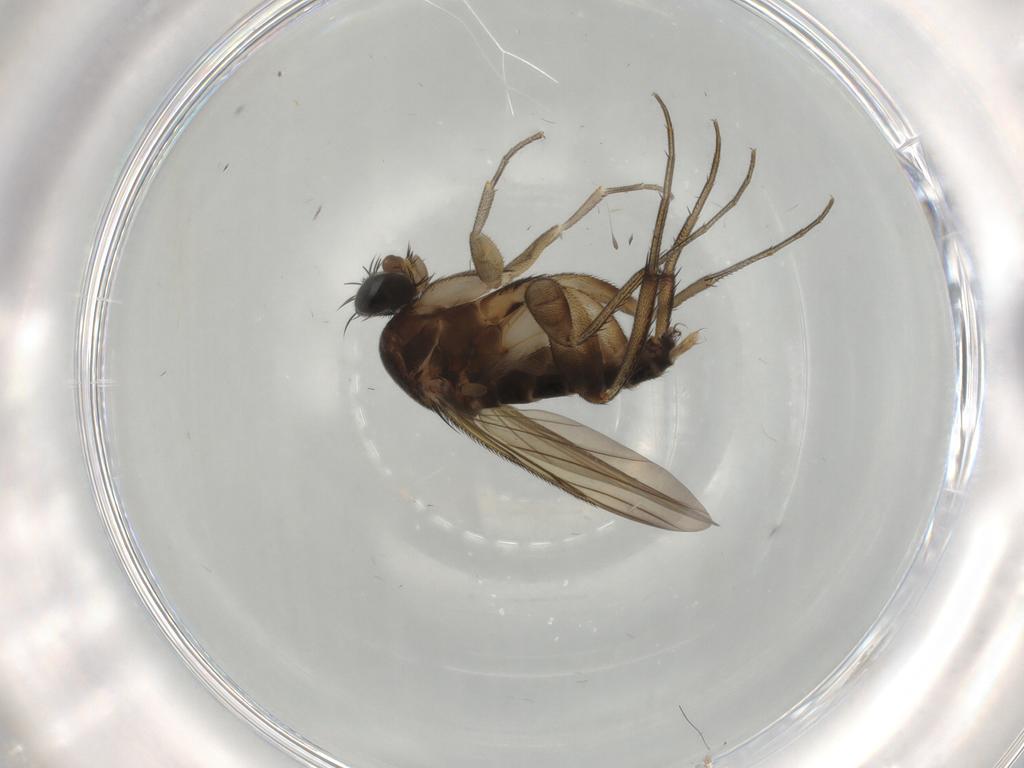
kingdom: Animalia
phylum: Arthropoda
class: Insecta
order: Diptera
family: Phoridae
